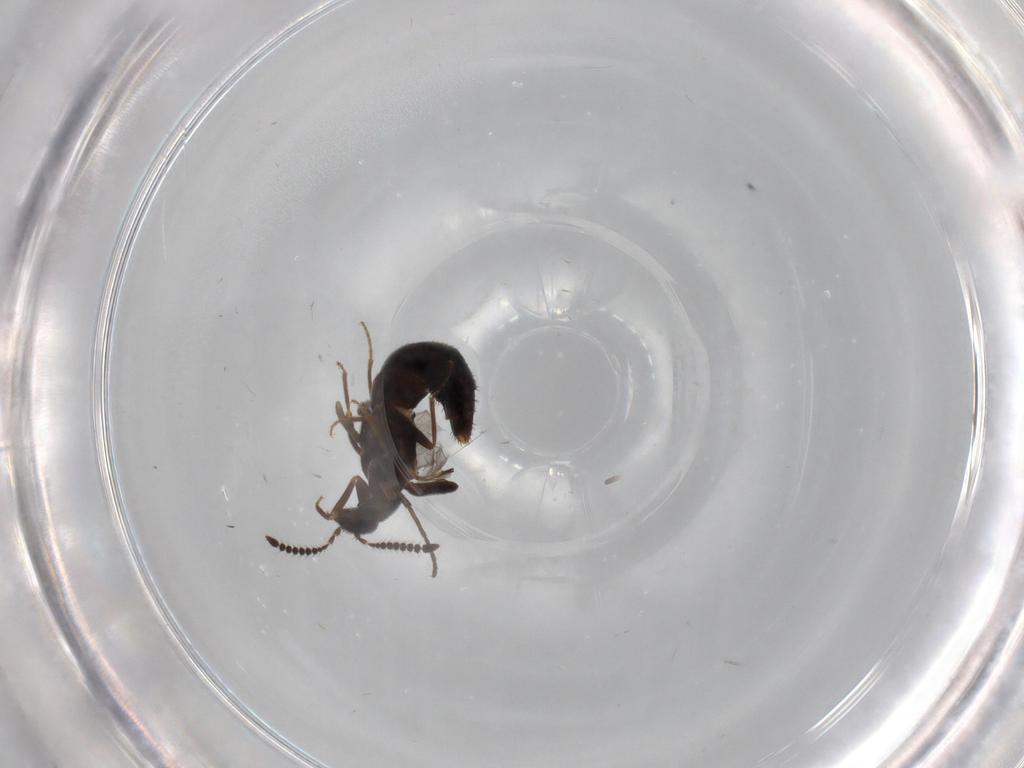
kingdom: Animalia
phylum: Arthropoda
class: Insecta
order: Coleoptera
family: Staphylinidae
